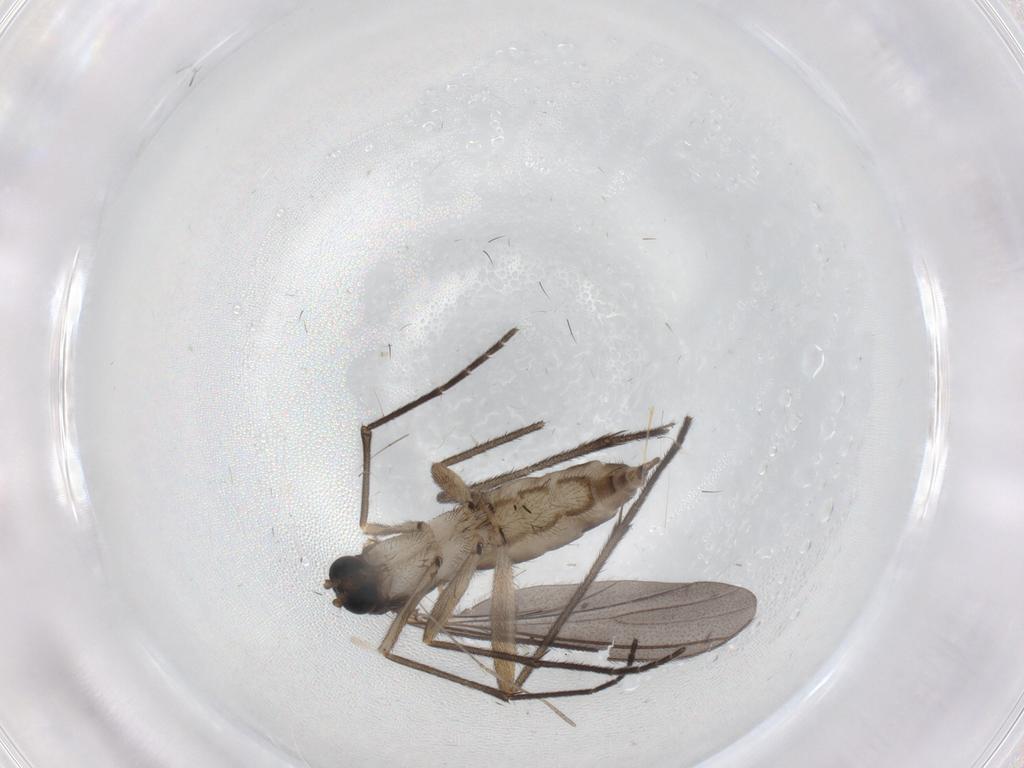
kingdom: Animalia
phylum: Arthropoda
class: Insecta
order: Diptera
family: Sciaridae
